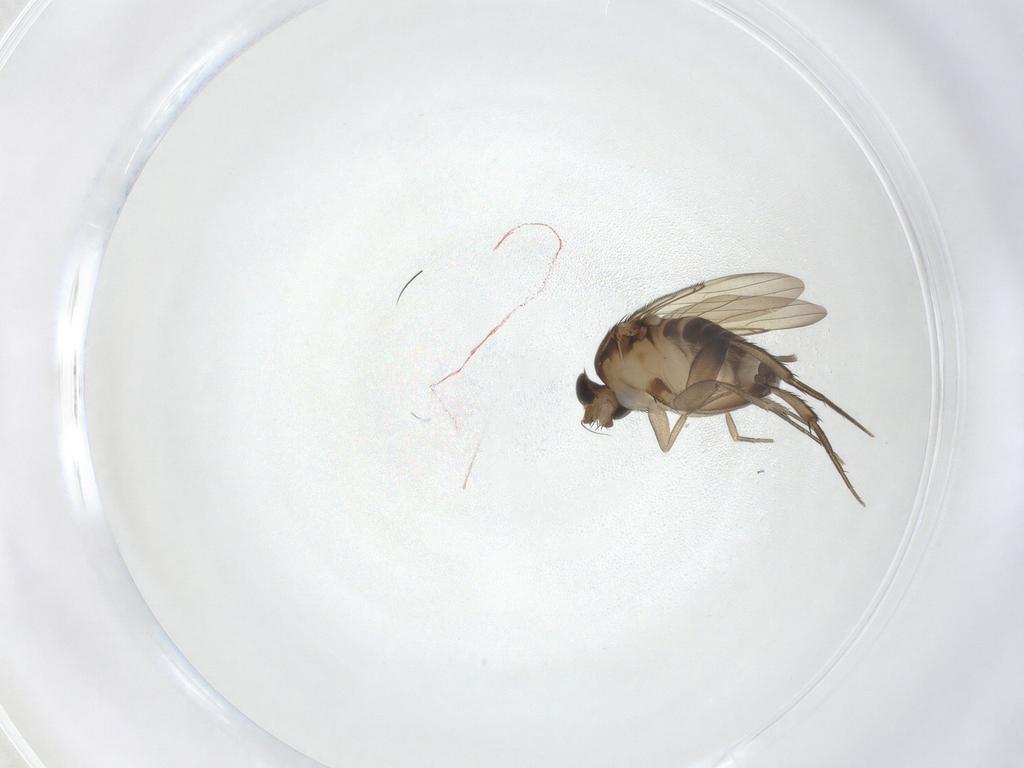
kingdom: Animalia
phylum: Arthropoda
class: Insecta
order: Diptera
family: Phoridae
